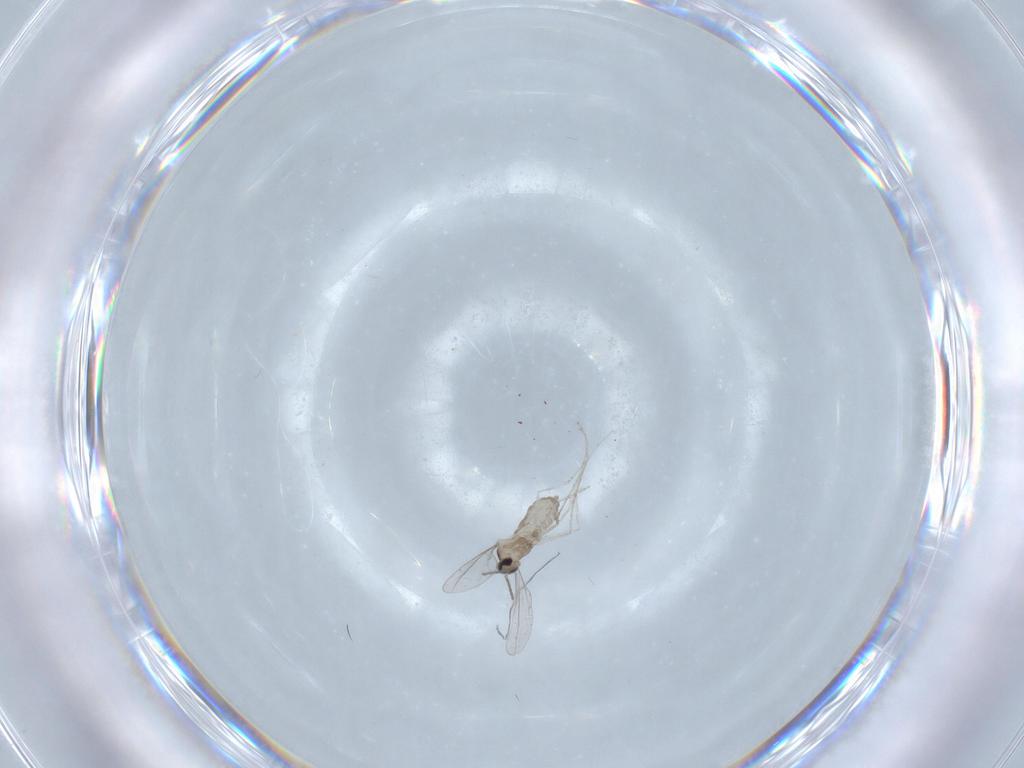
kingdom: Animalia
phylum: Arthropoda
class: Insecta
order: Diptera
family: Cecidomyiidae
